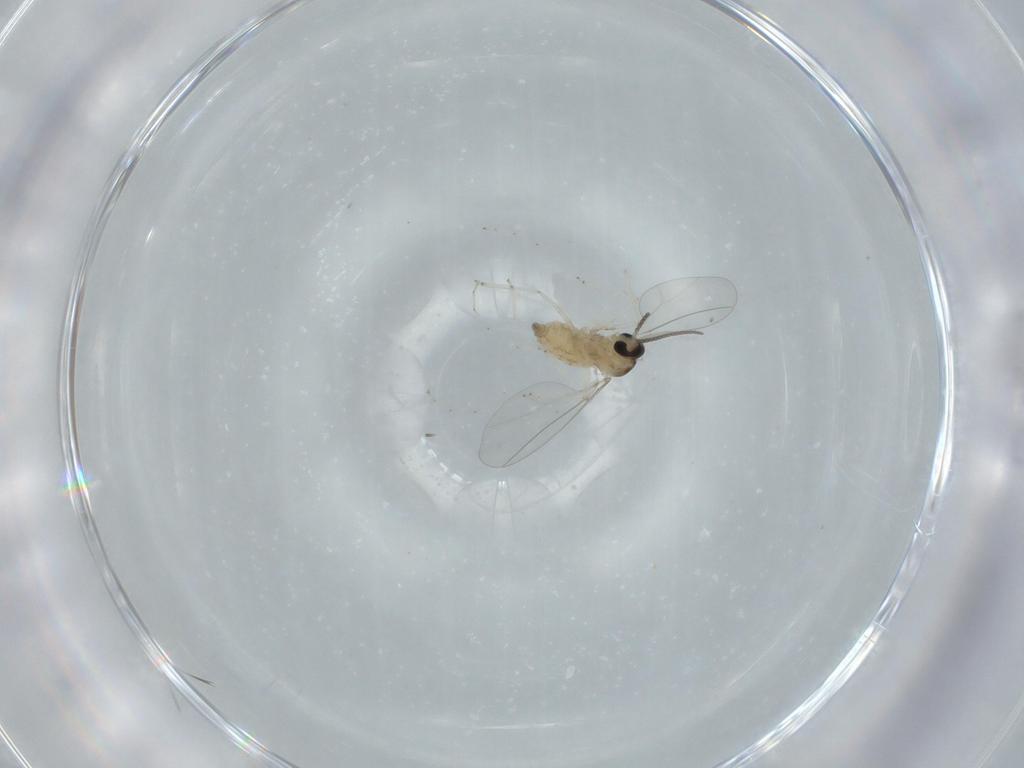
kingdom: Animalia
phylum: Arthropoda
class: Insecta
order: Diptera
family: Cecidomyiidae
